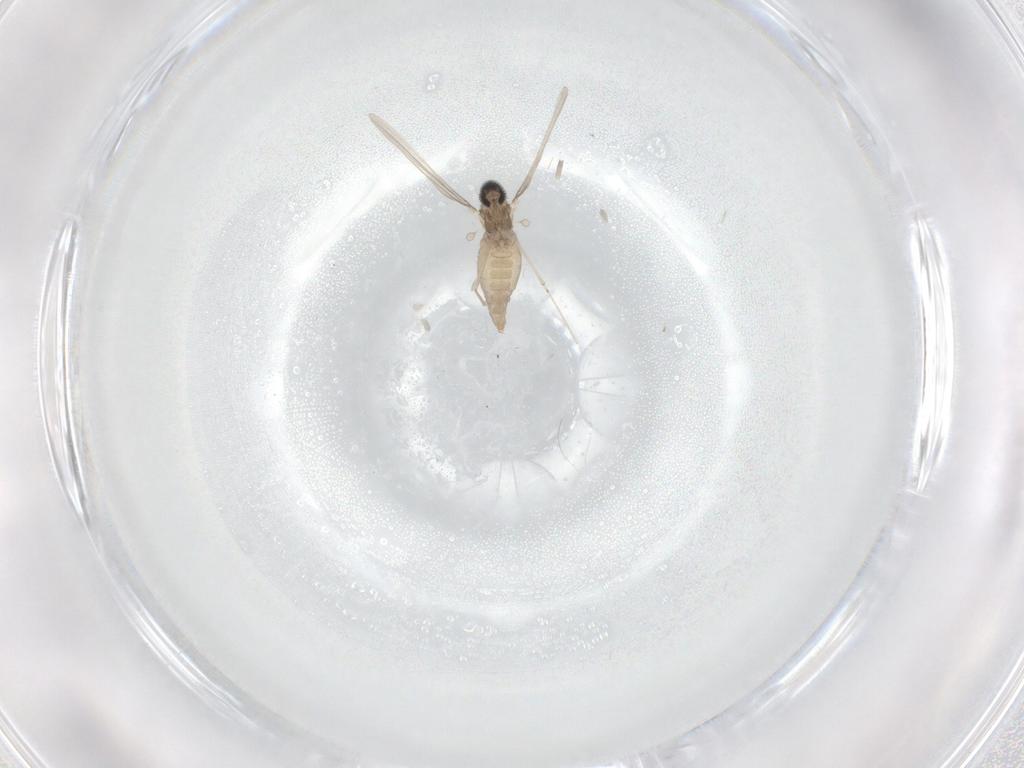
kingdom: Animalia
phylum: Arthropoda
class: Insecta
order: Diptera
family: Cecidomyiidae
